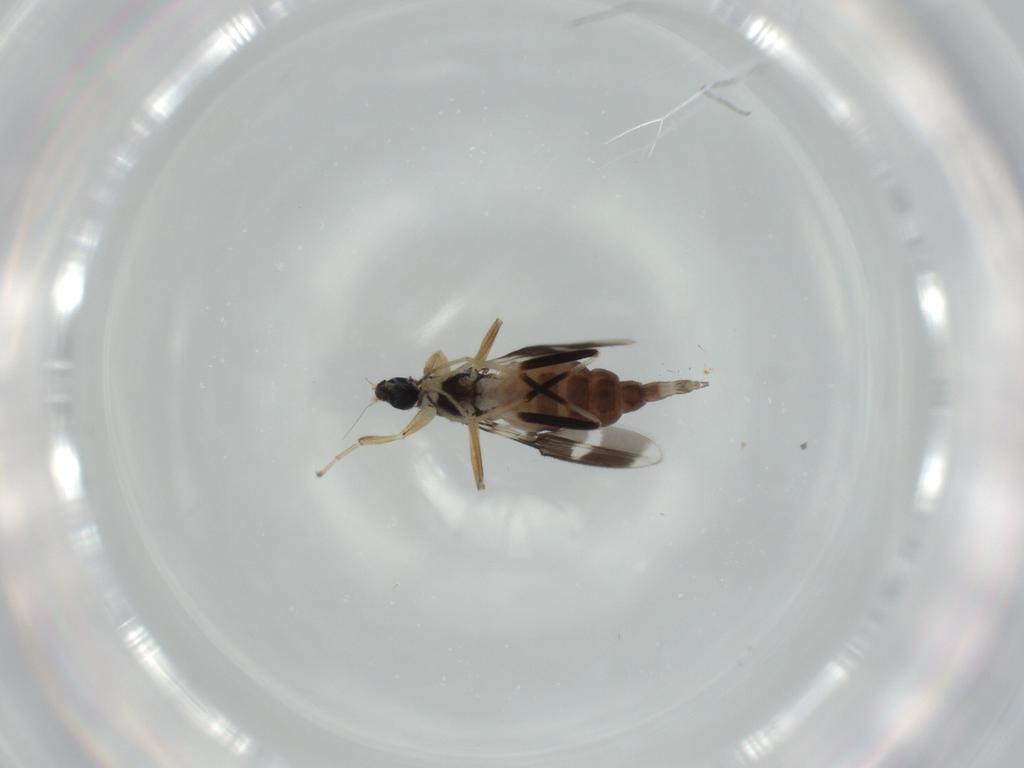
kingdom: Animalia
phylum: Arthropoda
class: Insecta
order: Diptera
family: Hybotidae
